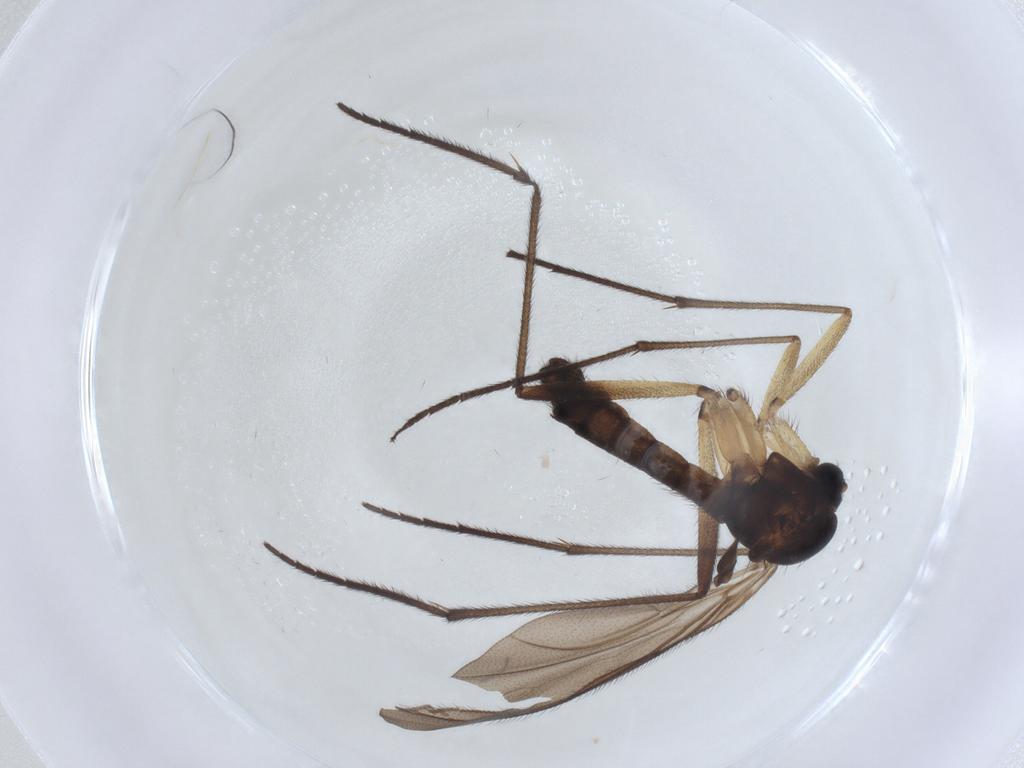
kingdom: Animalia
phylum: Arthropoda
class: Insecta
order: Diptera
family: Sciaridae
